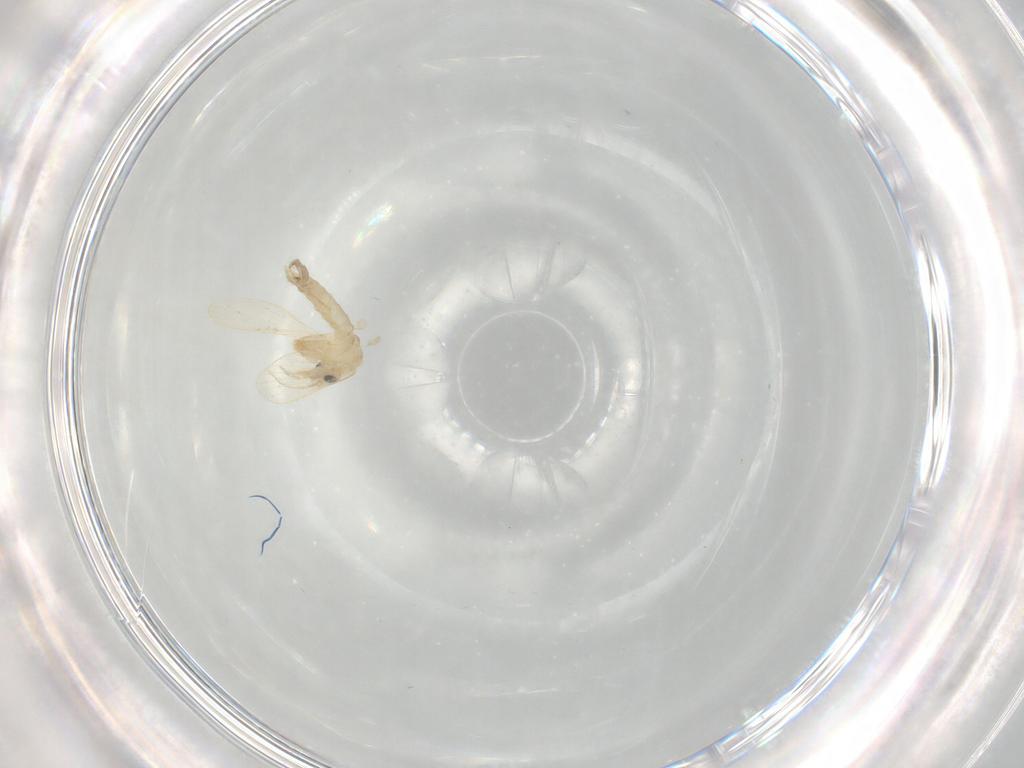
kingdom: Animalia
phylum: Arthropoda
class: Insecta
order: Diptera
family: Psychodidae
